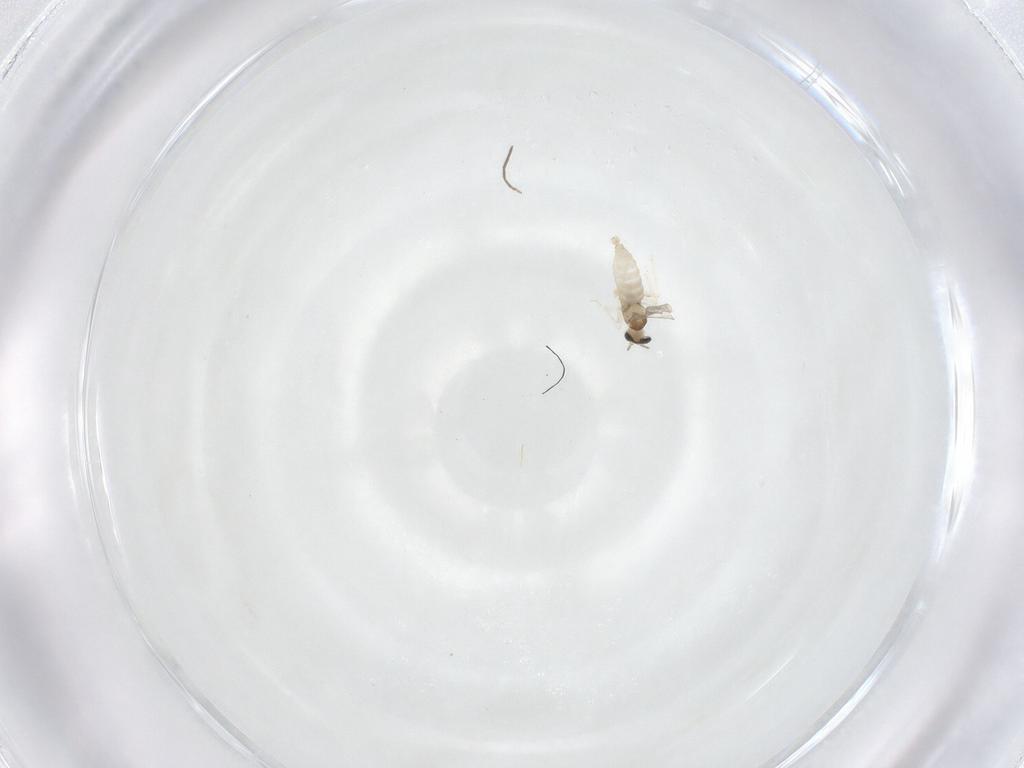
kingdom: Animalia
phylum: Arthropoda
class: Insecta
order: Diptera
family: Chironomidae
